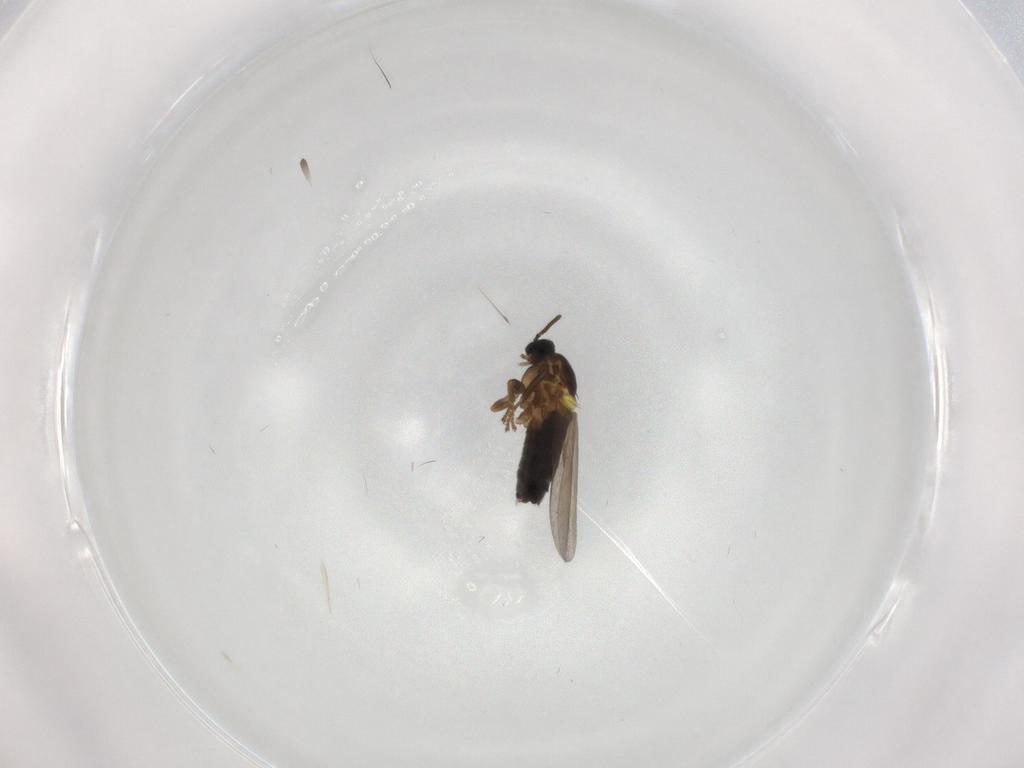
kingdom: Animalia
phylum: Arthropoda
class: Insecta
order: Diptera
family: Scatopsidae
